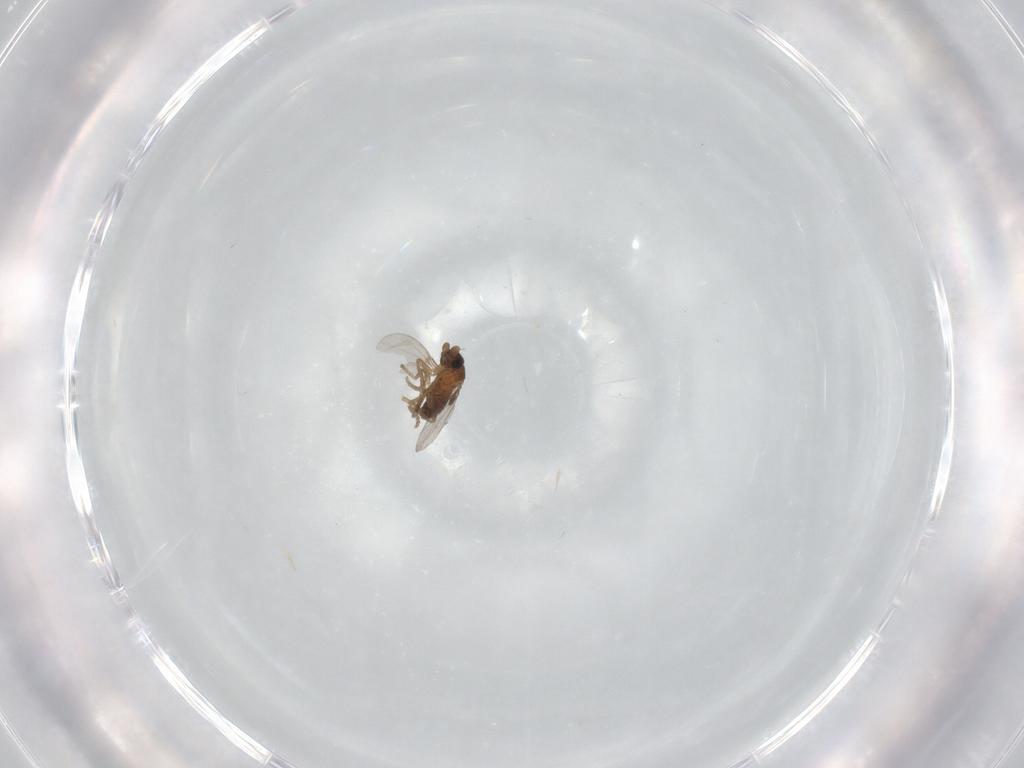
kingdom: Animalia
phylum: Arthropoda
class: Insecta
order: Diptera
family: Phoridae
